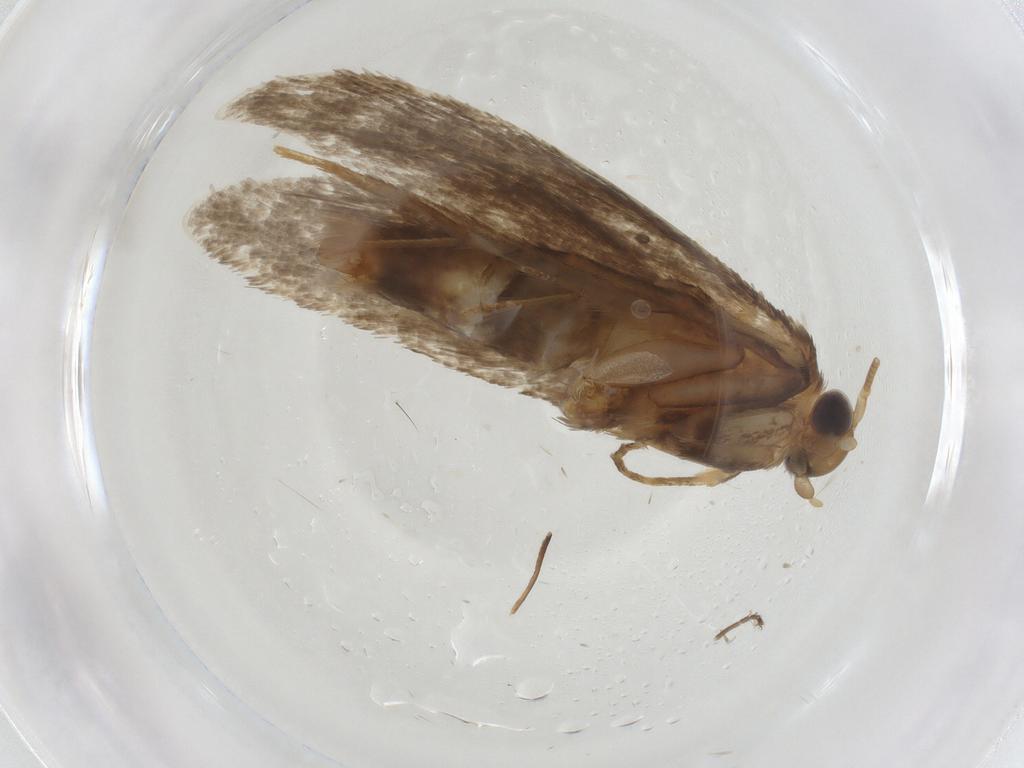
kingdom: Animalia
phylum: Arthropoda
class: Insecta
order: Lepidoptera
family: Tineidae
